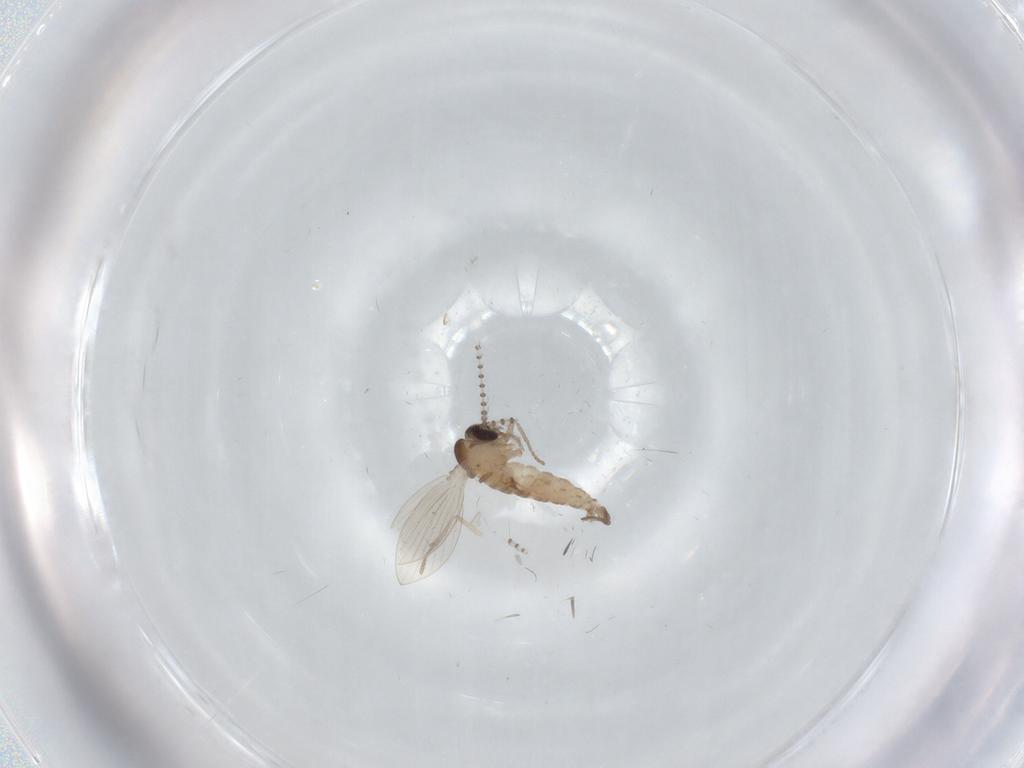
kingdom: Animalia
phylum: Arthropoda
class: Insecta
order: Diptera
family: Psychodidae
